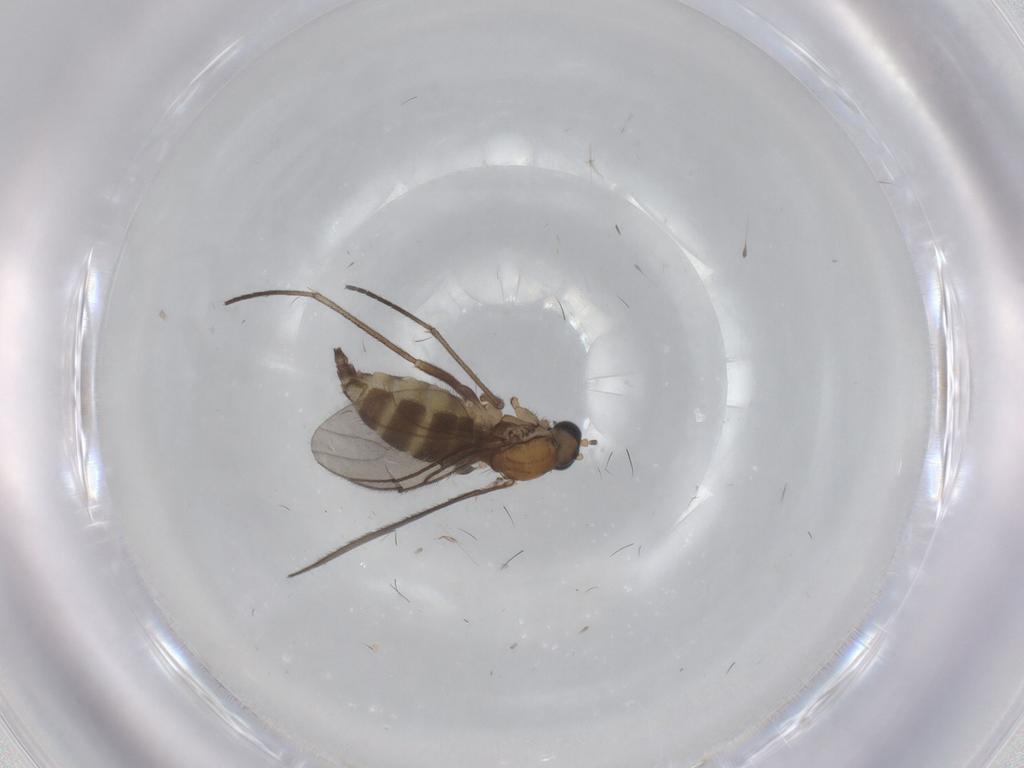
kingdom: Animalia
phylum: Arthropoda
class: Insecta
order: Diptera
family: Sciaridae
